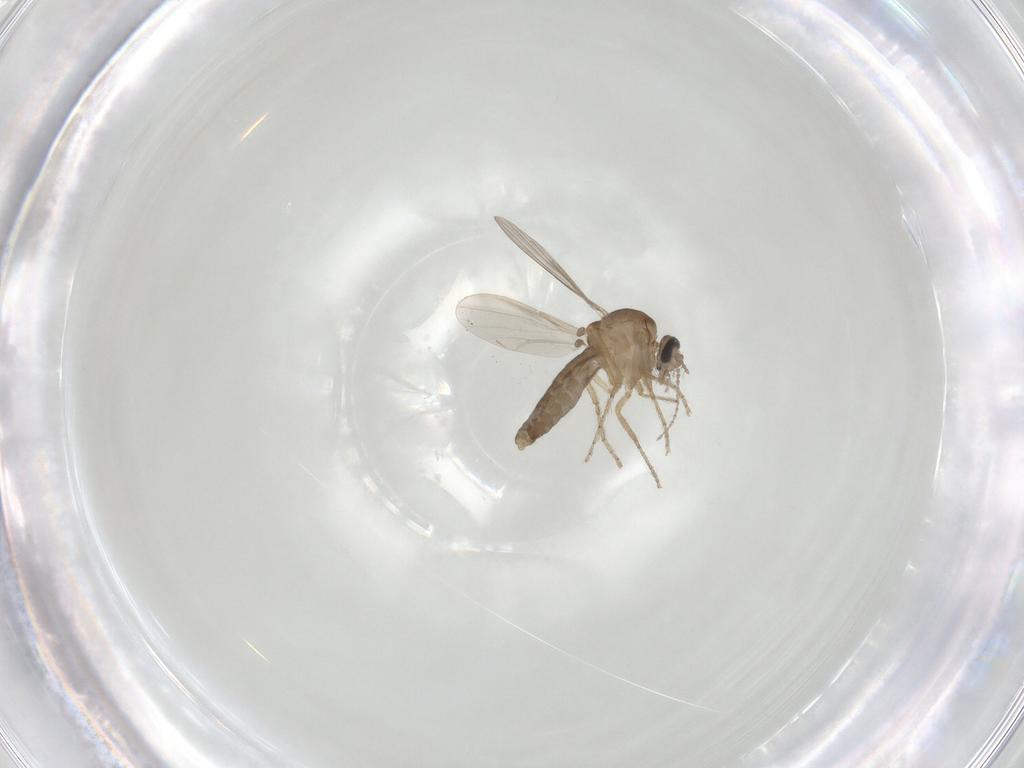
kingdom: Animalia
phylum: Arthropoda
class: Insecta
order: Diptera
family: Ceratopogonidae
